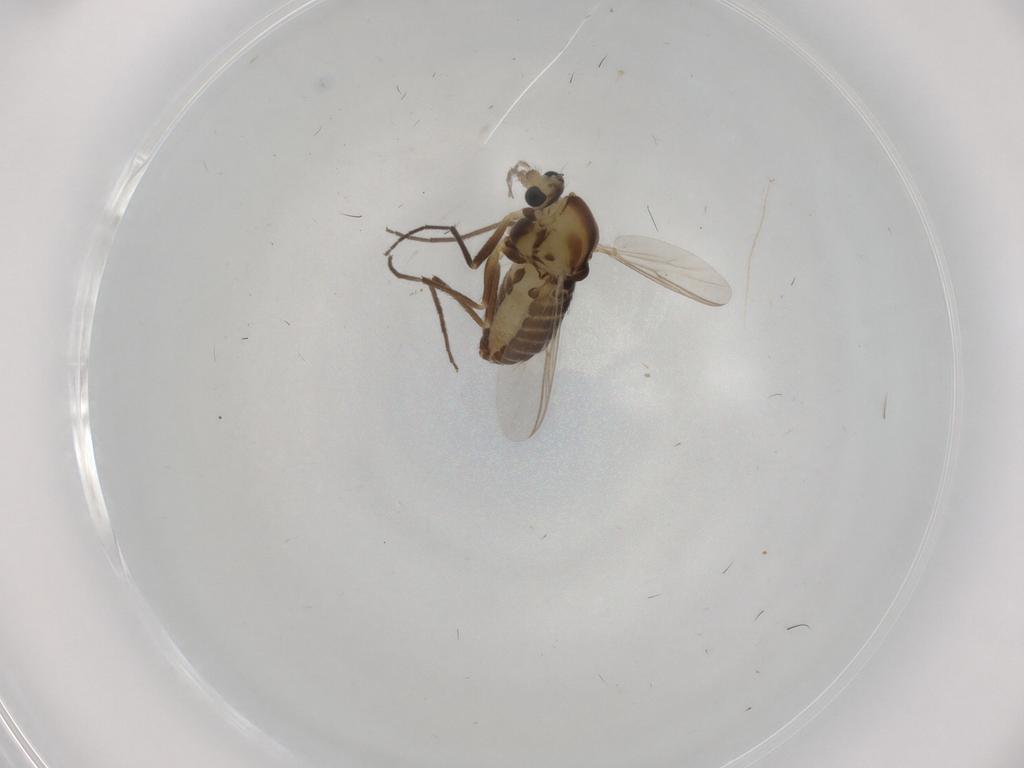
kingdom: Animalia
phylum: Arthropoda
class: Insecta
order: Diptera
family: Chironomidae
